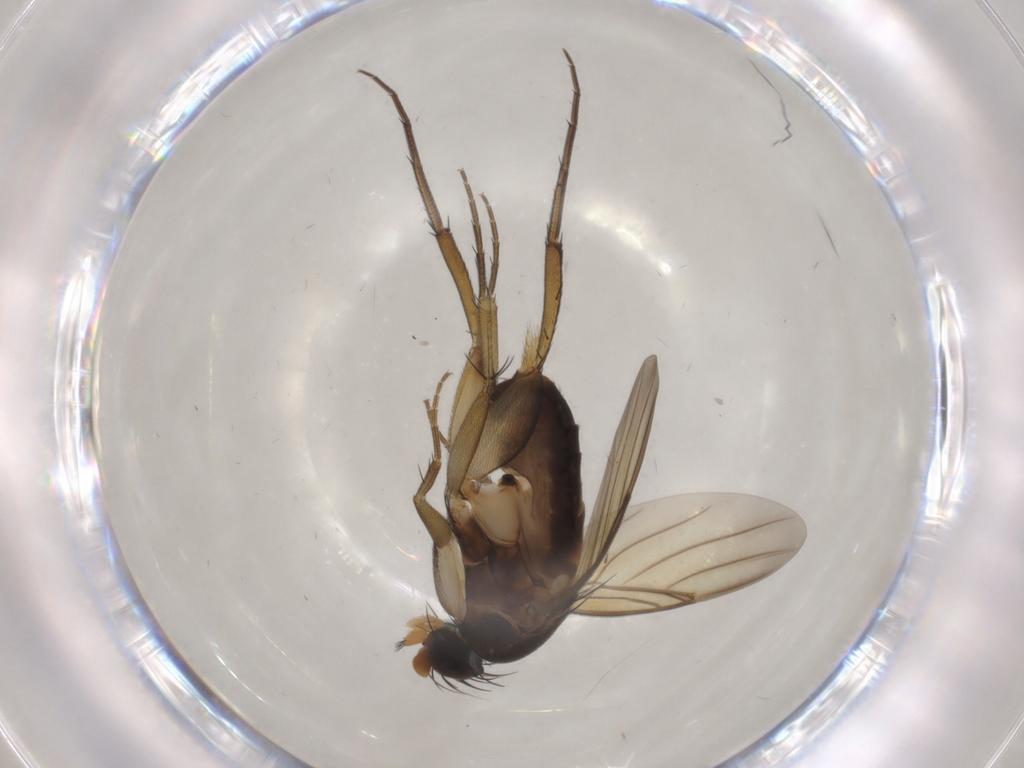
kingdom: Animalia
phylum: Arthropoda
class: Insecta
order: Diptera
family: Phoridae
